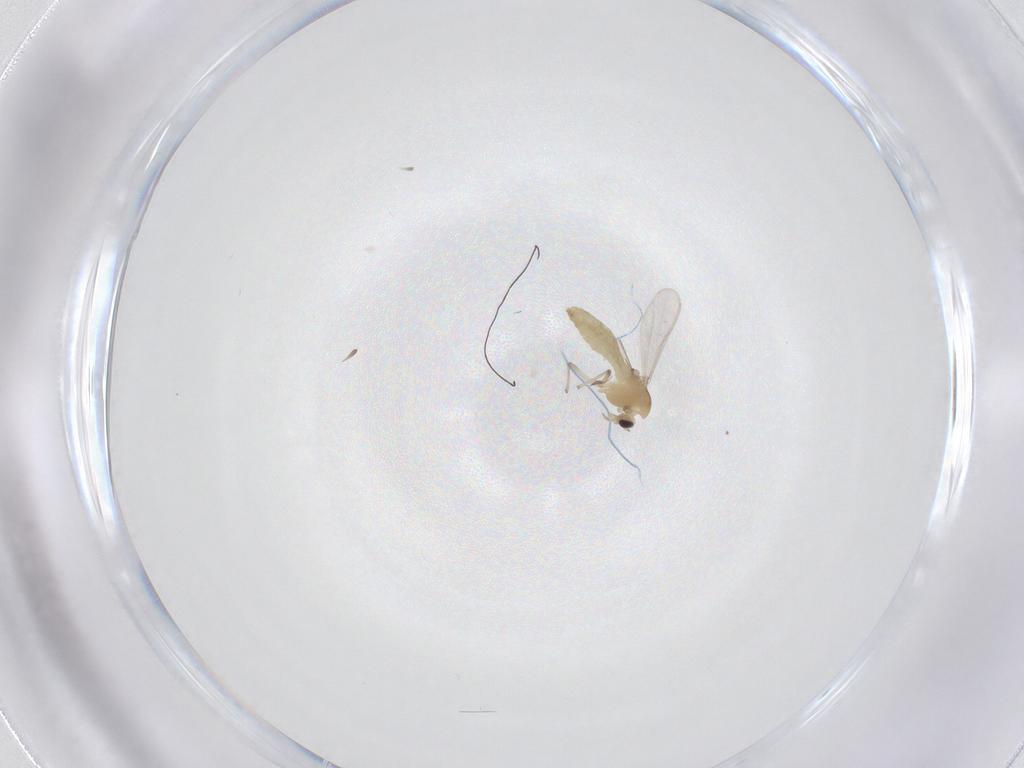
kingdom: Animalia
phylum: Arthropoda
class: Insecta
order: Diptera
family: Chironomidae
